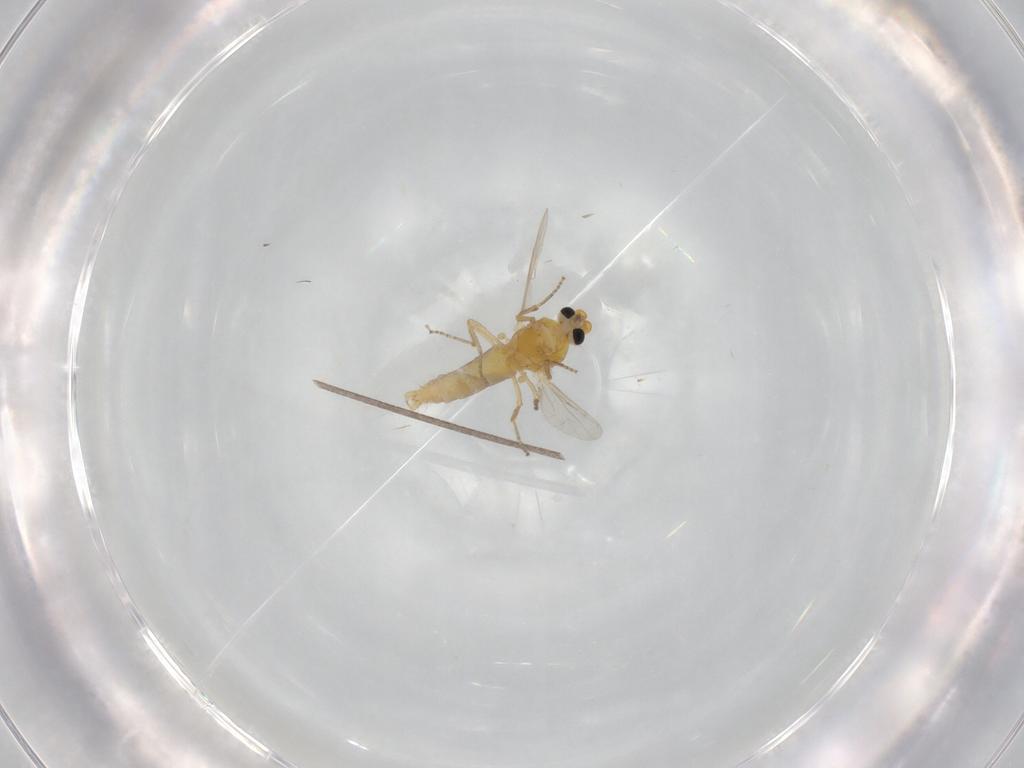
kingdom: Animalia
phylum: Arthropoda
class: Insecta
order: Diptera
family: Ceratopogonidae
